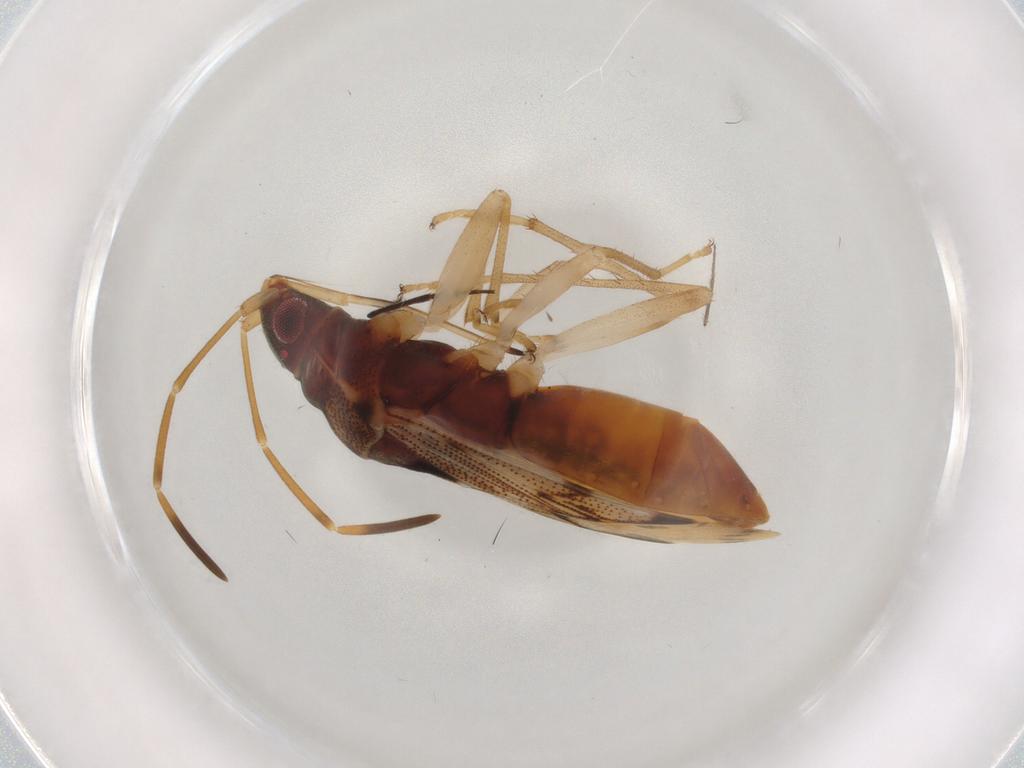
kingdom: Animalia
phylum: Arthropoda
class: Insecta
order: Hemiptera
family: Rhyparochromidae
